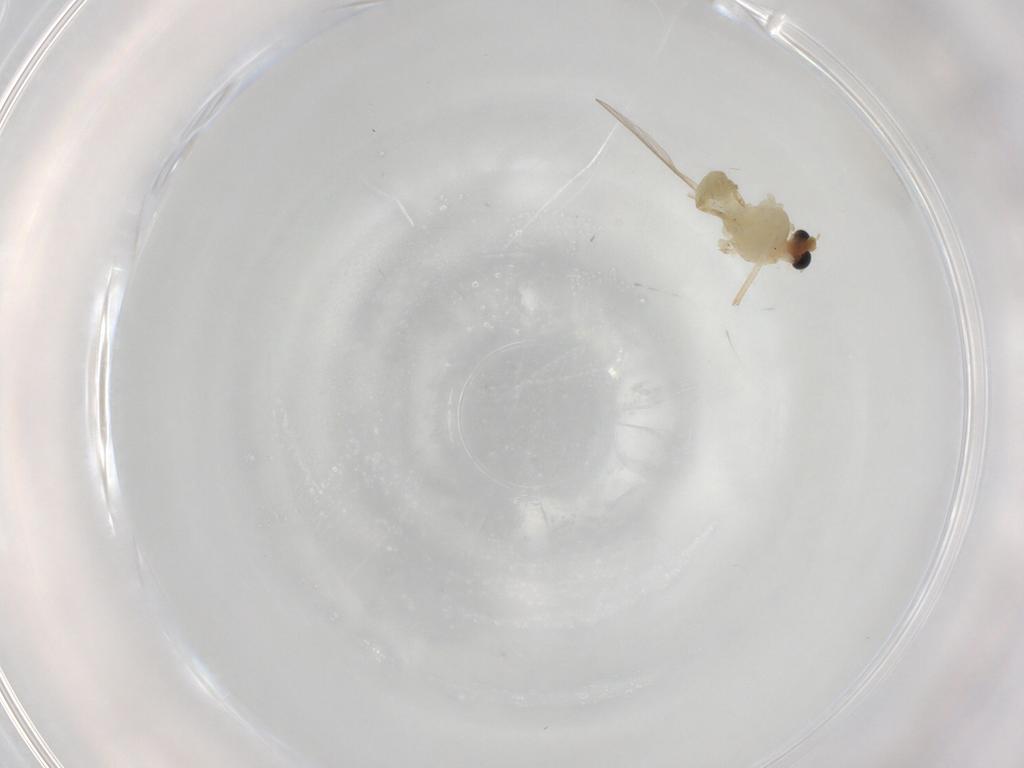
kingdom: Animalia
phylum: Arthropoda
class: Insecta
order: Diptera
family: Chironomidae
